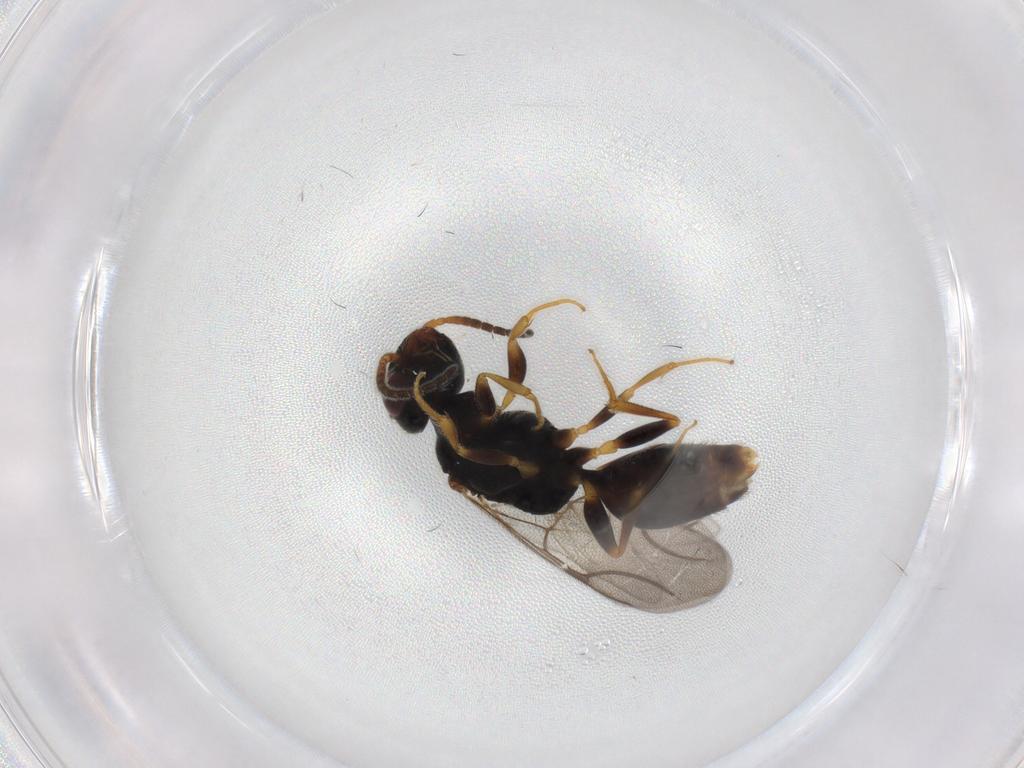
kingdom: Animalia
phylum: Arthropoda
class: Insecta
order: Hymenoptera
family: Bethylidae
